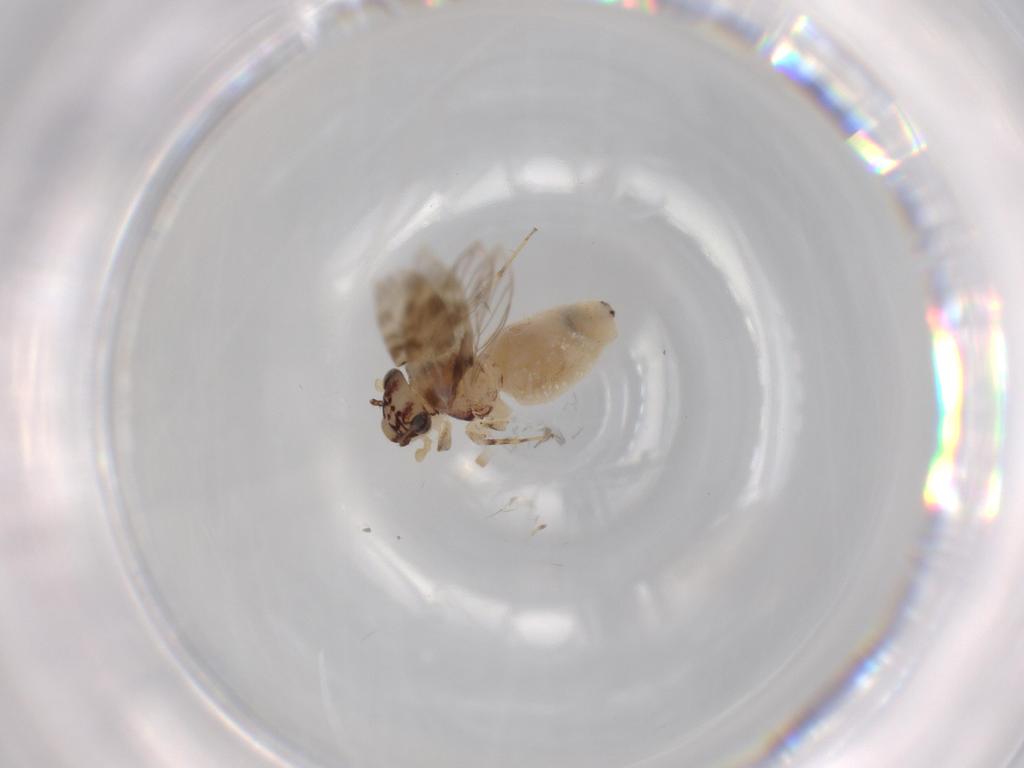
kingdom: Animalia
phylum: Arthropoda
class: Insecta
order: Psocodea
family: Lepidopsocidae
